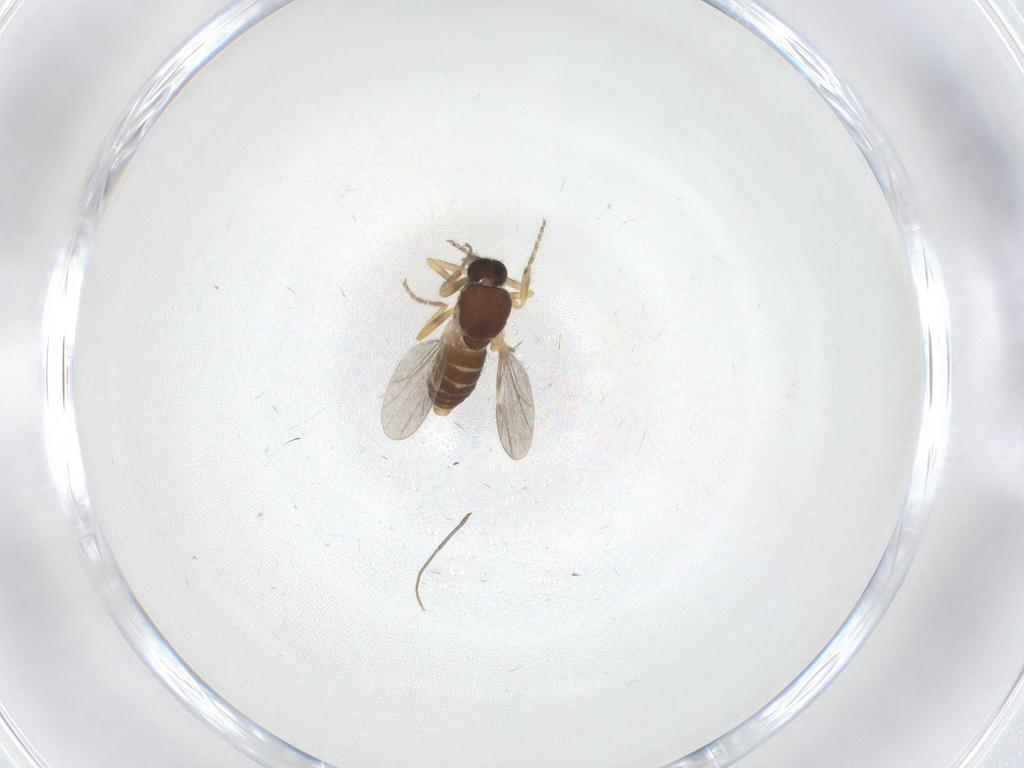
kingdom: Animalia
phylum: Arthropoda
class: Insecta
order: Diptera
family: Ceratopogonidae
